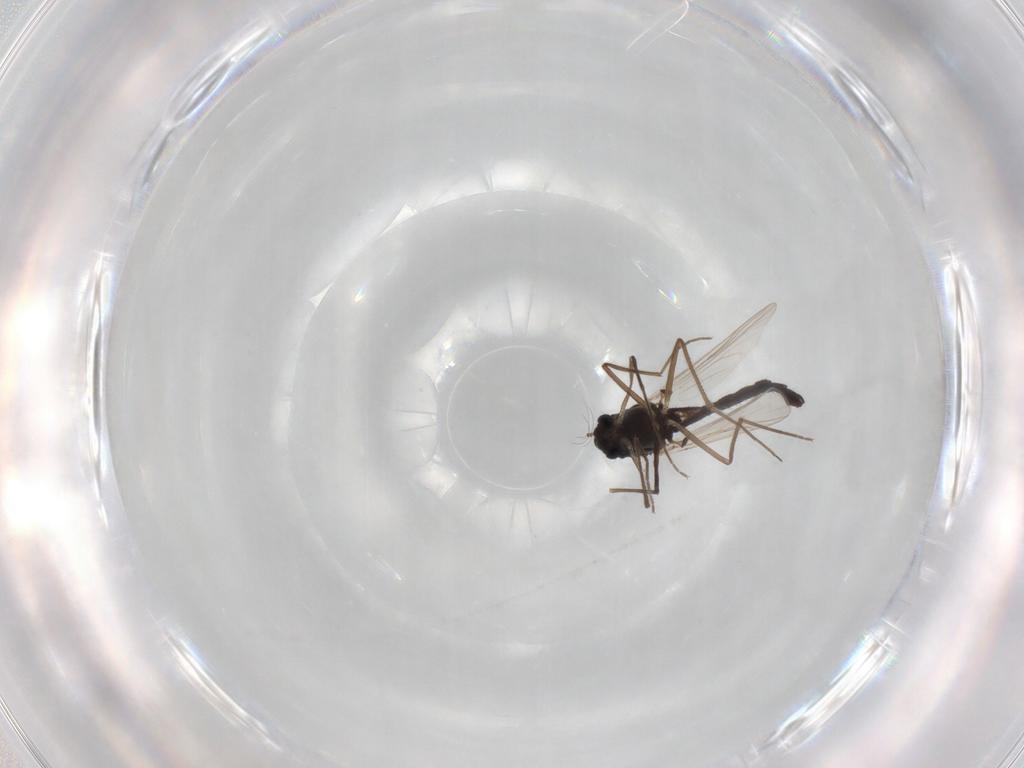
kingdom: Animalia
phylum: Arthropoda
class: Insecta
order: Diptera
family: Chironomidae
